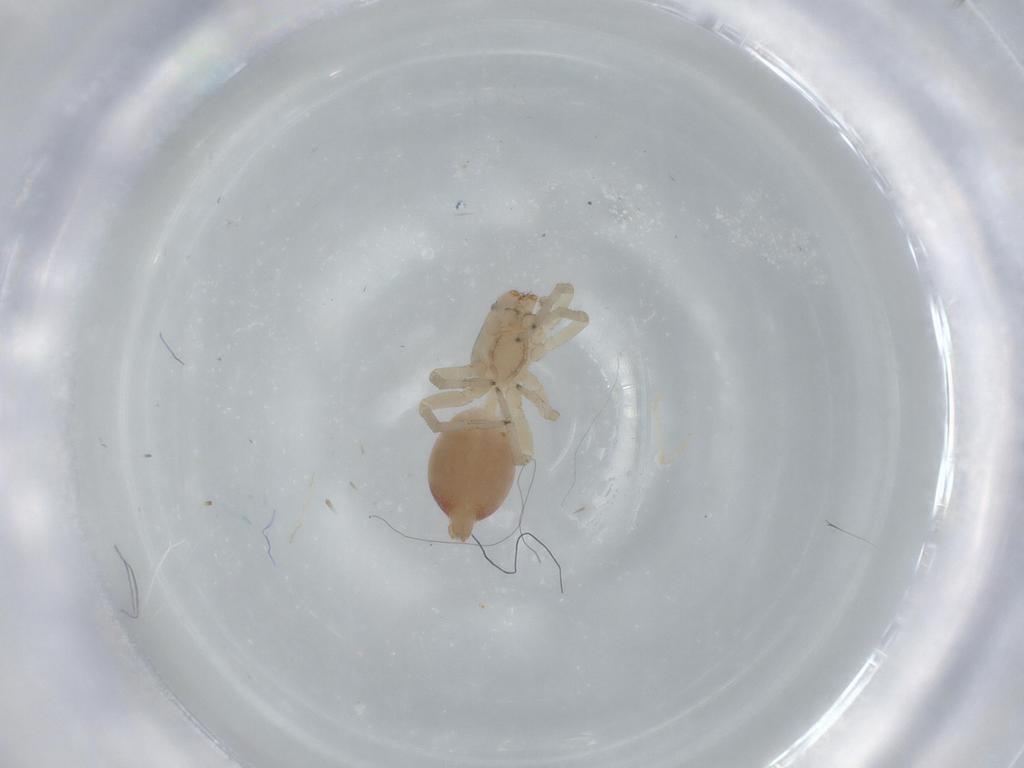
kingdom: Animalia
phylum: Arthropoda
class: Arachnida
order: Araneae
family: Clubionidae
